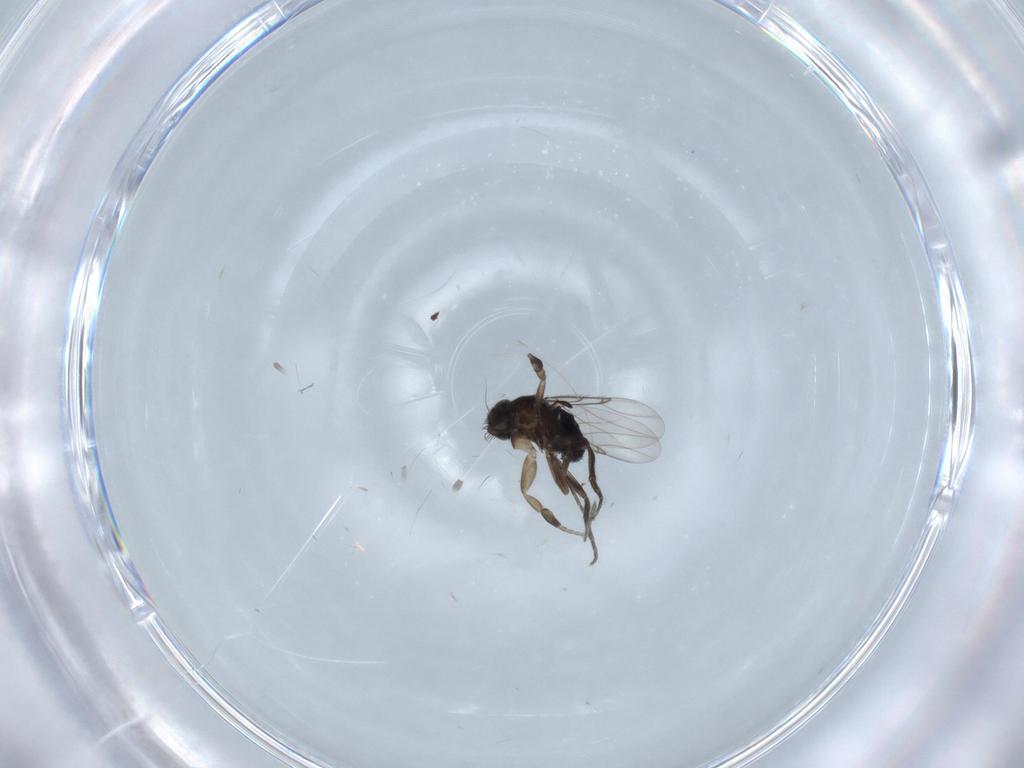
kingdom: Animalia
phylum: Arthropoda
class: Insecta
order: Diptera
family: Phoridae
